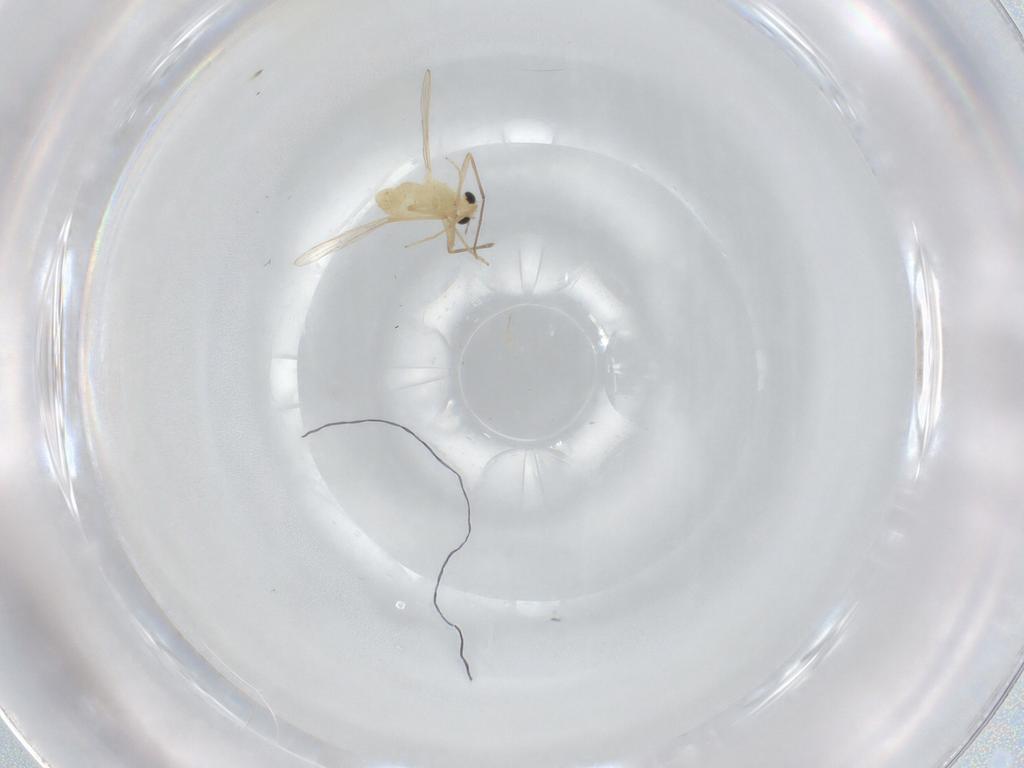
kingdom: Animalia
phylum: Arthropoda
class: Insecta
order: Diptera
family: Chironomidae
